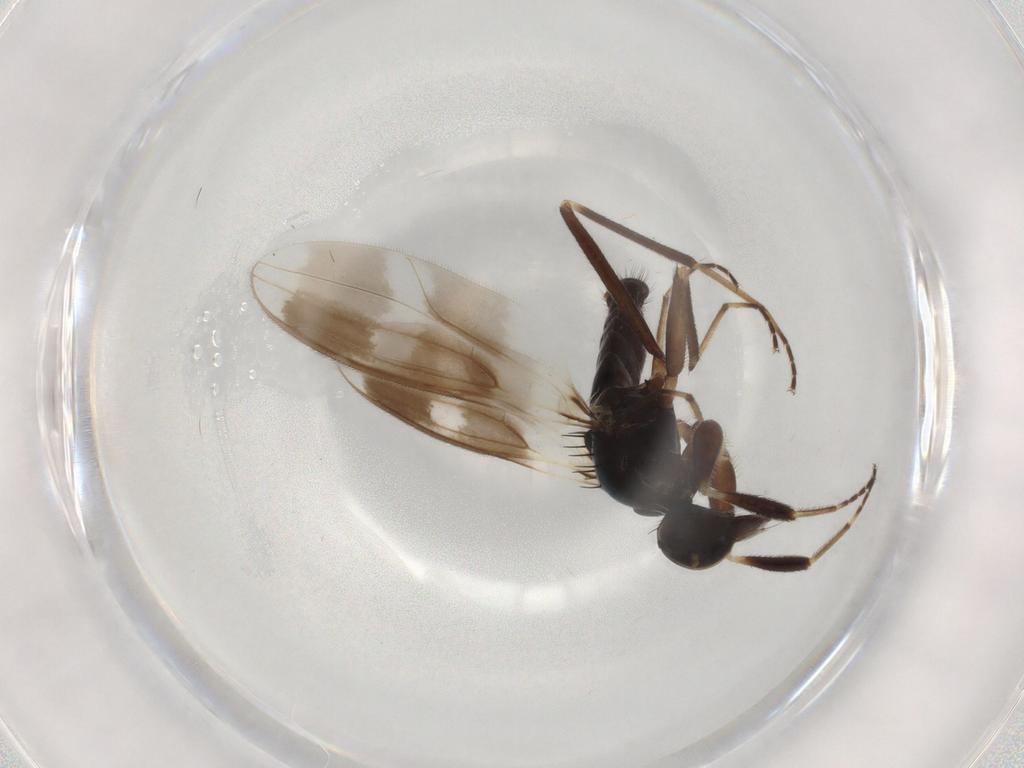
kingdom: Animalia
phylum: Arthropoda
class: Insecta
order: Diptera
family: Hybotidae
